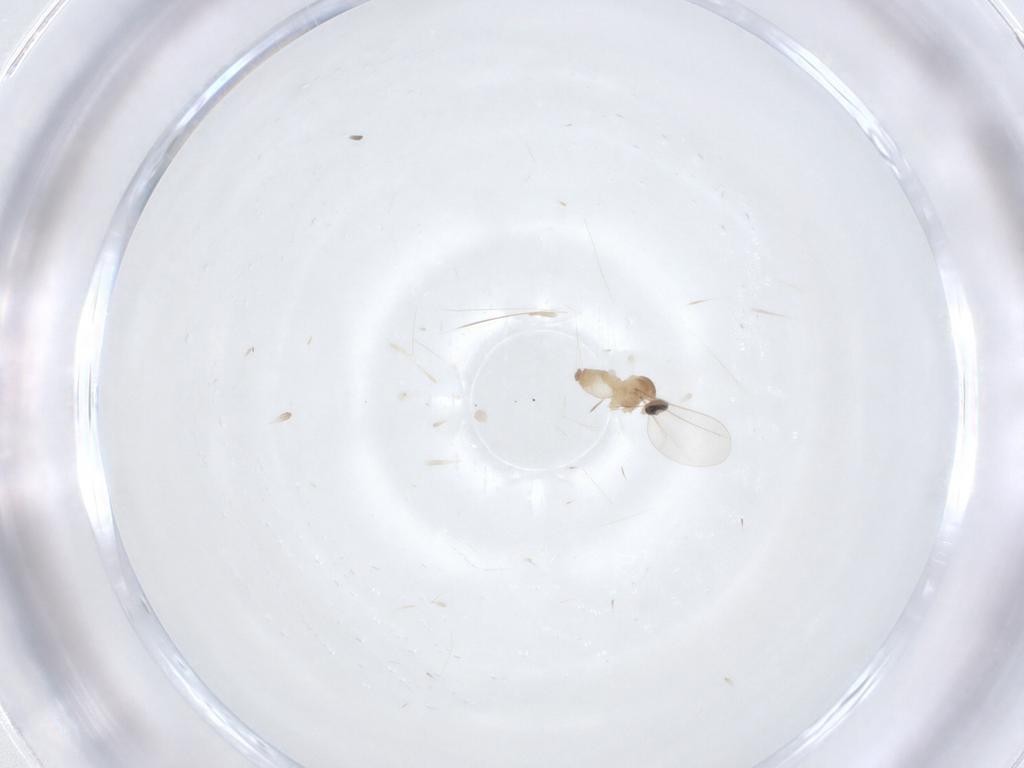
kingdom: Animalia
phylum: Arthropoda
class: Insecta
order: Diptera
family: Cecidomyiidae
